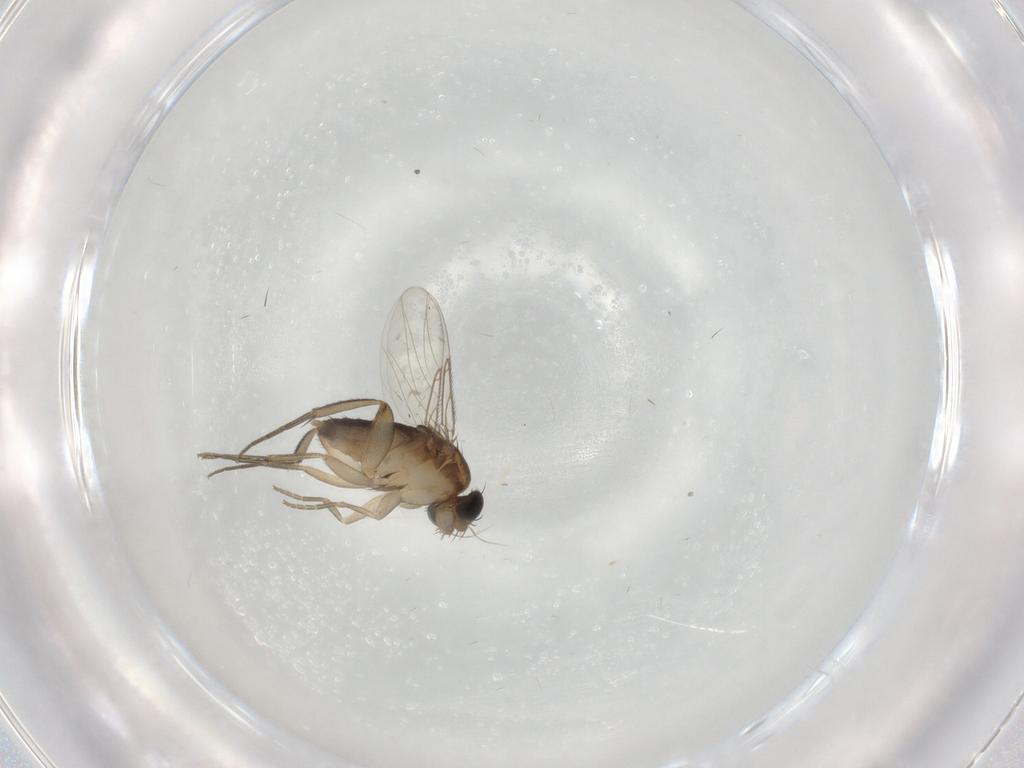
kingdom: Animalia
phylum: Arthropoda
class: Insecta
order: Diptera
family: Phoridae
